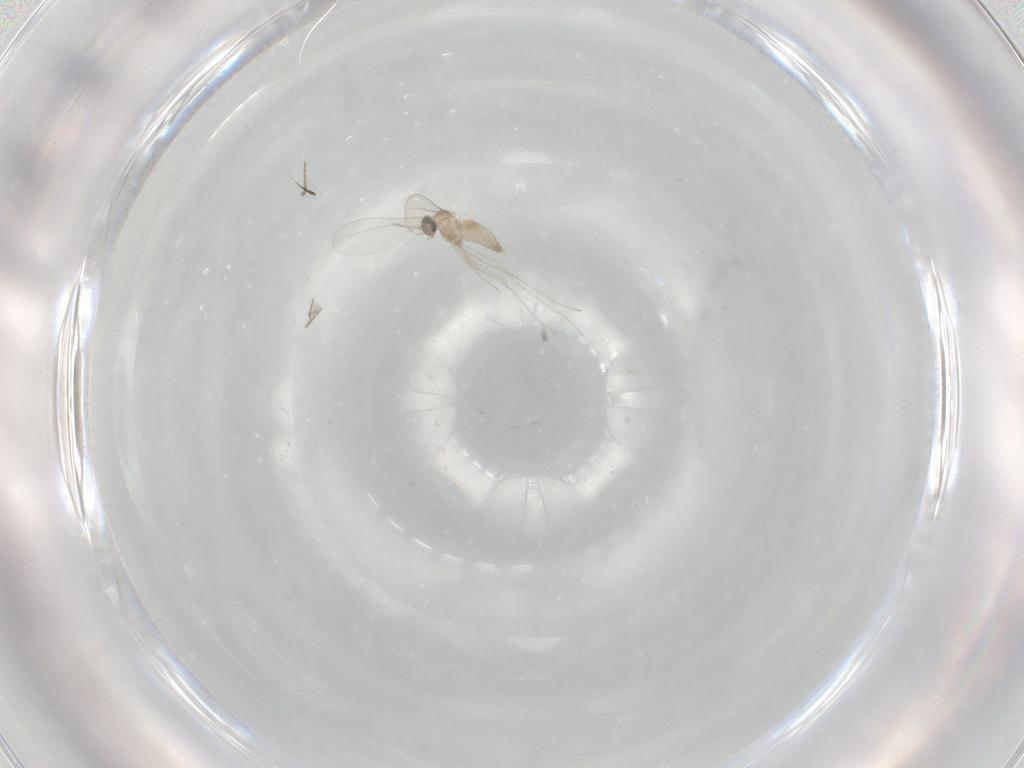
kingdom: Animalia
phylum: Arthropoda
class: Insecta
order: Diptera
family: Cecidomyiidae
